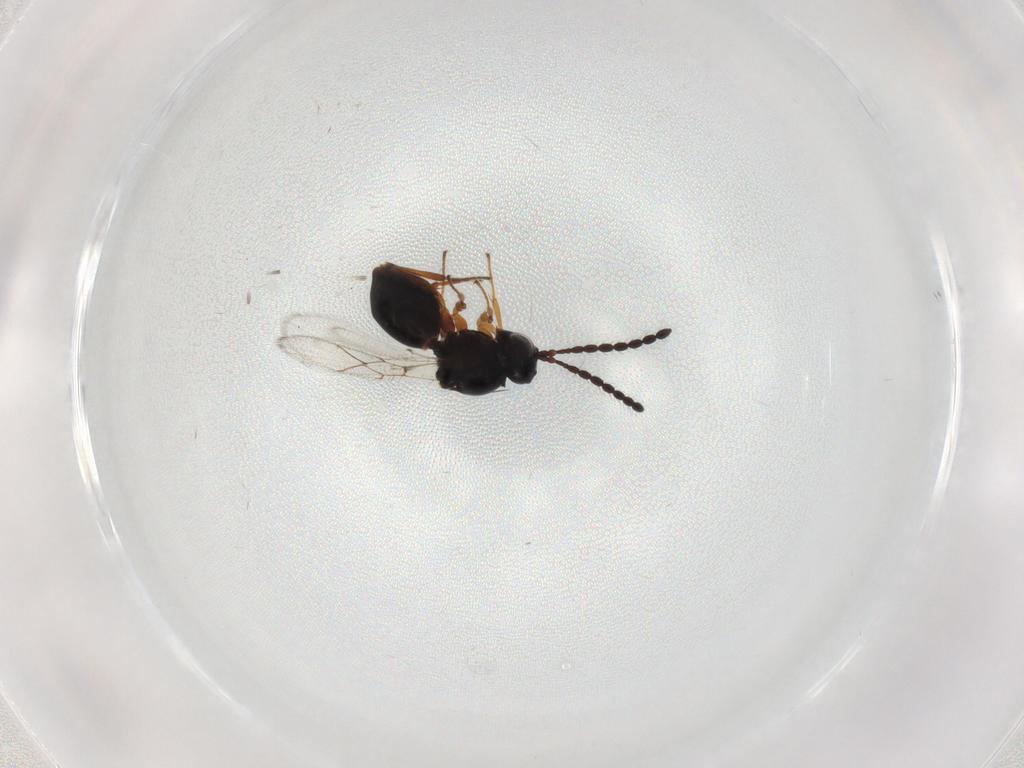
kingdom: Animalia
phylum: Arthropoda
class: Insecta
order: Hymenoptera
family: Figitidae
